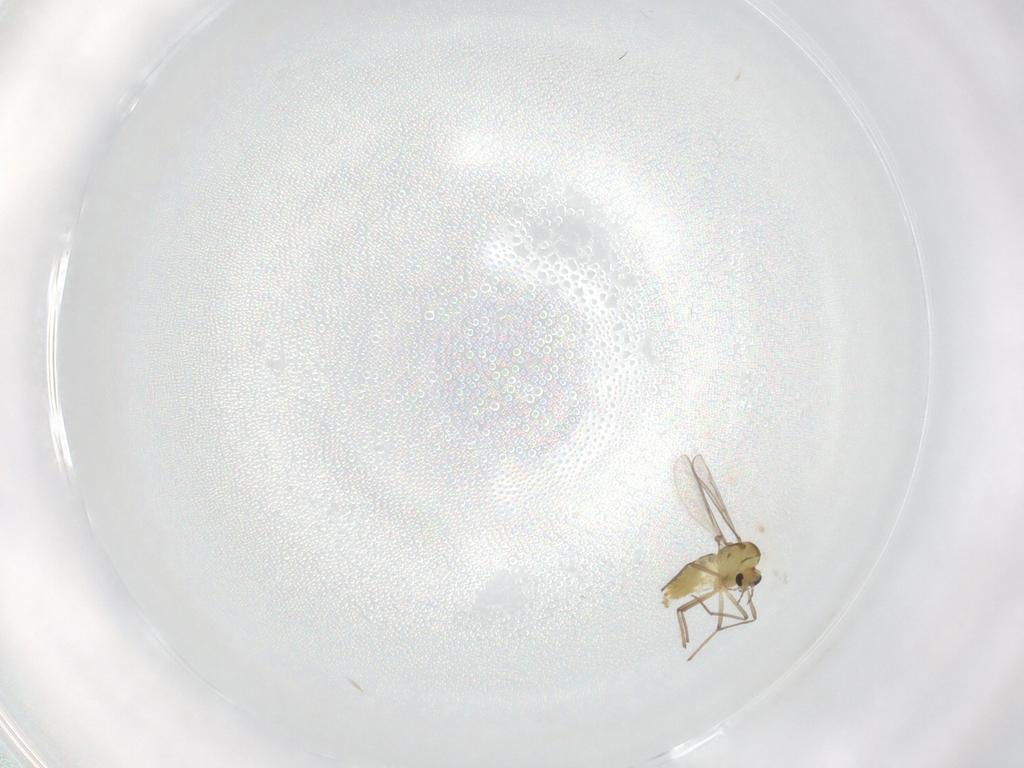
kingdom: Animalia
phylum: Arthropoda
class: Insecta
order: Diptera
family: Chironomidae
